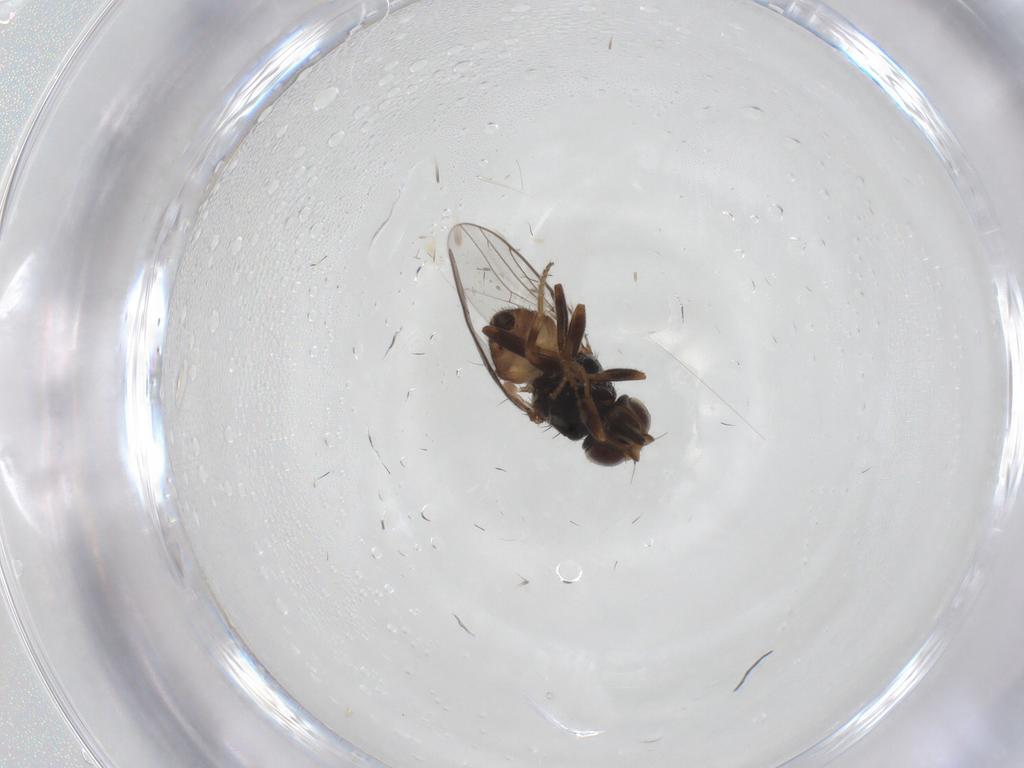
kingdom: Animalia
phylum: Arthropoda
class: Insecta
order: Diptera
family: Chloropidae
